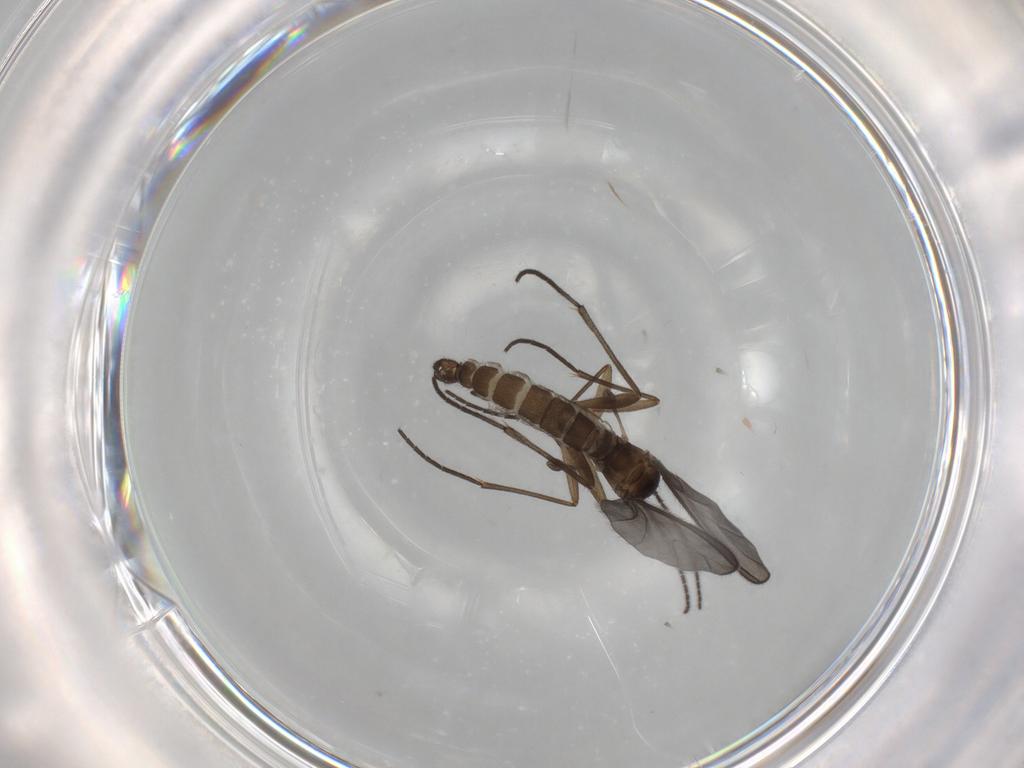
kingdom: Animalia
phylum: Arthropoda
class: Insecta
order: Diptera
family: Sciaridae
